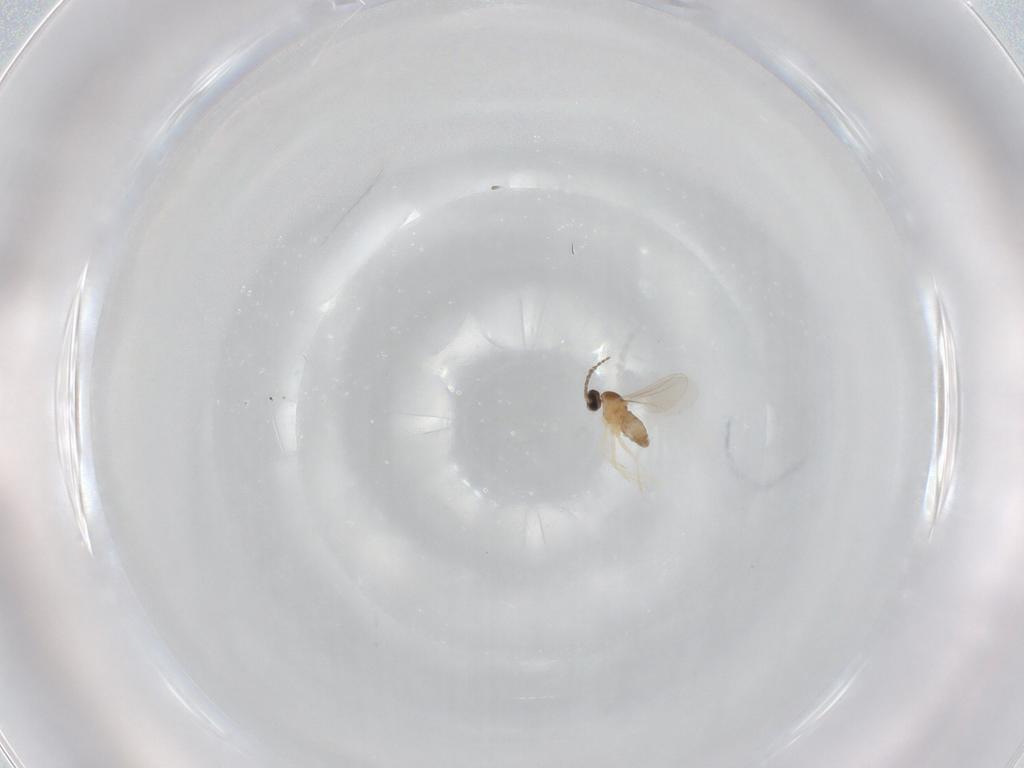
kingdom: Animalia
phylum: Arthropoda
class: Insecta
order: Diptera
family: Cecidomyiidae
